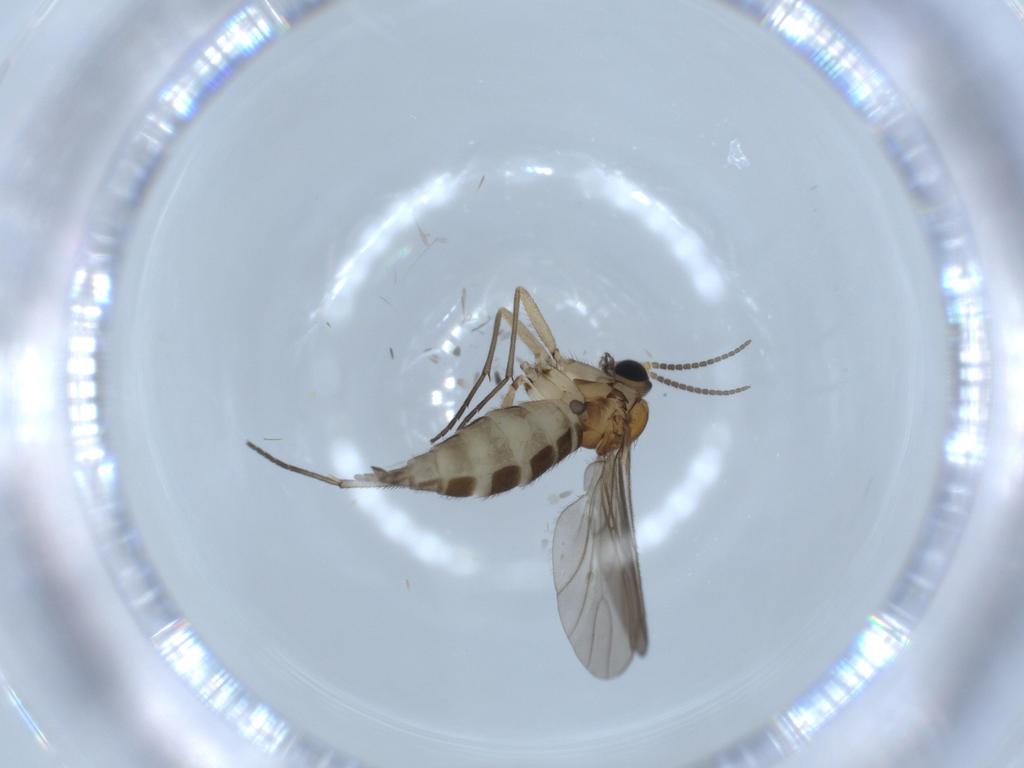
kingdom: Animalia
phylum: Arthropoda
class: Insecta
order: Diptera
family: Sciaridae
